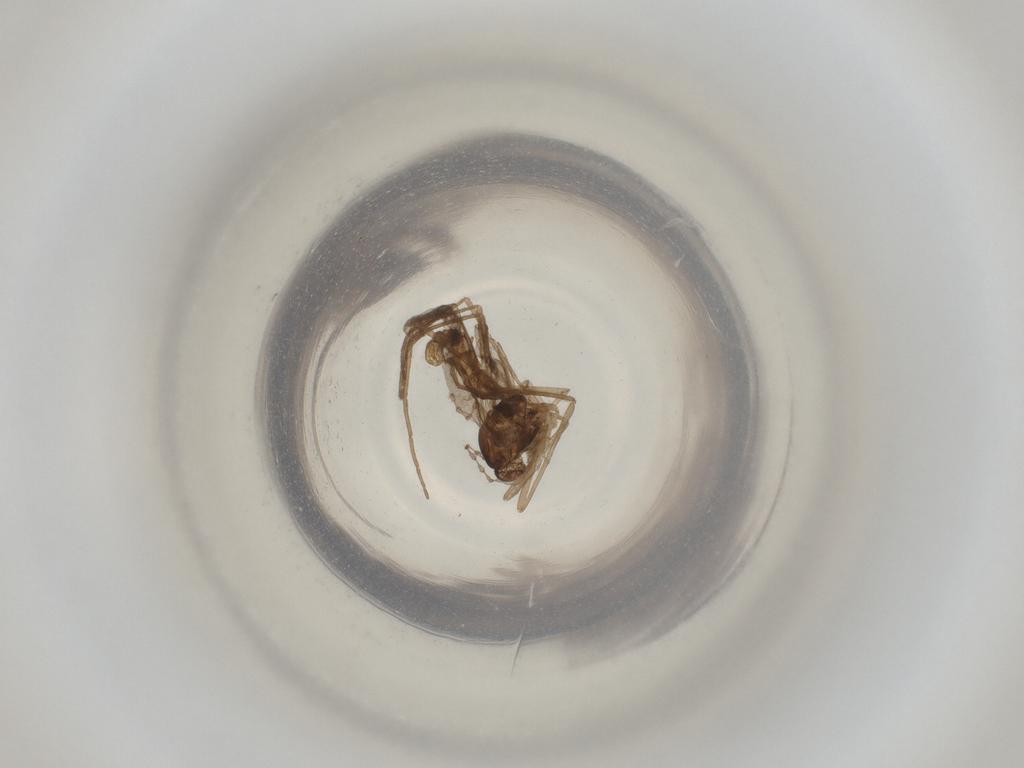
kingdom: Animalia
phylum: Arthropoda
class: Insecta
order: Diptera
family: Cecidomyiidae
